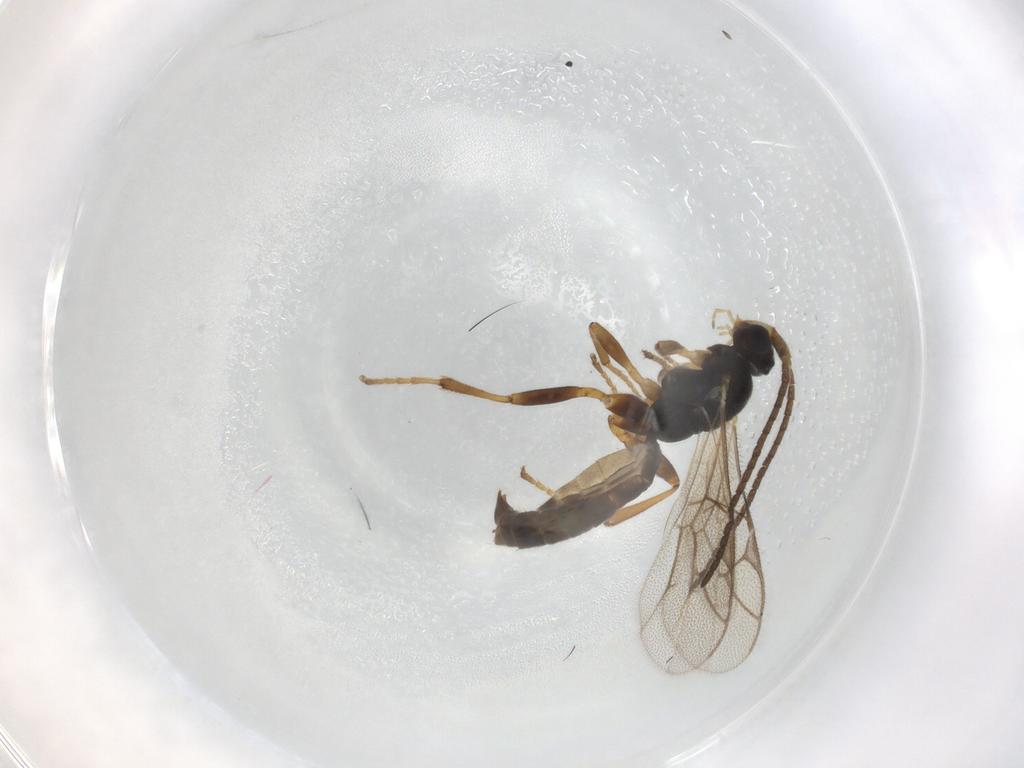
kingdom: Animalia
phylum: Arthropoda
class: Insecta
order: Hymenoptera
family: Ichneumonidae
